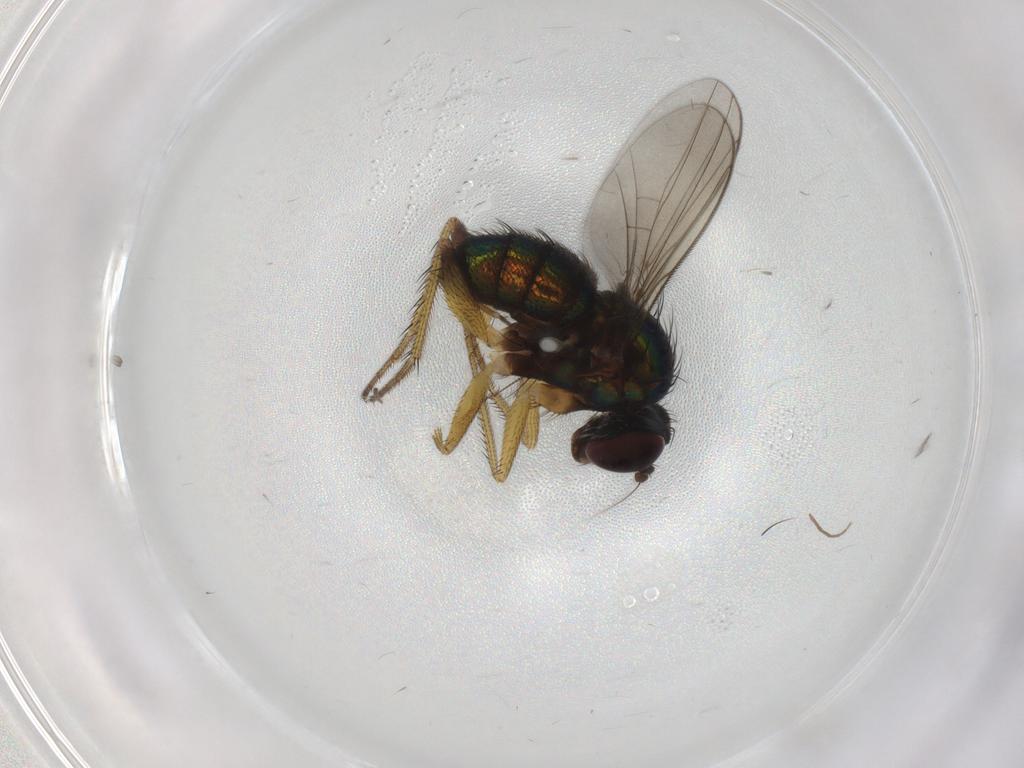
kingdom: Animalia
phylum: Arthropoda
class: Insecta
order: Diptera
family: Dolichopodidae
